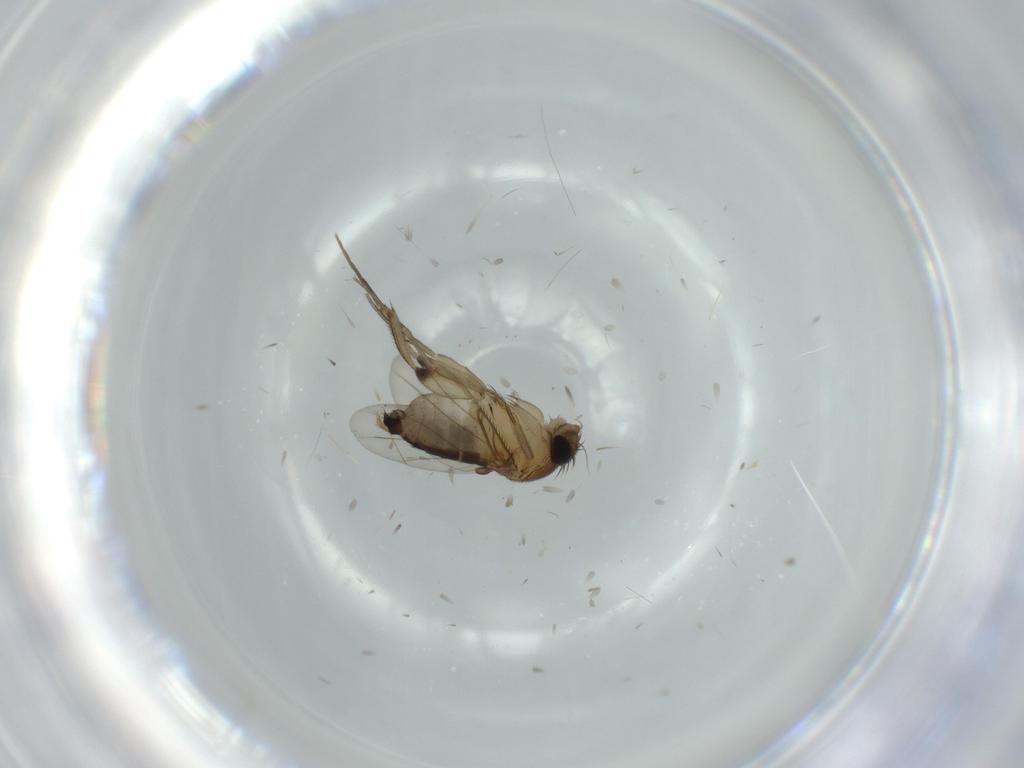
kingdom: Animalia
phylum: Arthropoda
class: Insecta
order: Diptera
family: Phoridae
